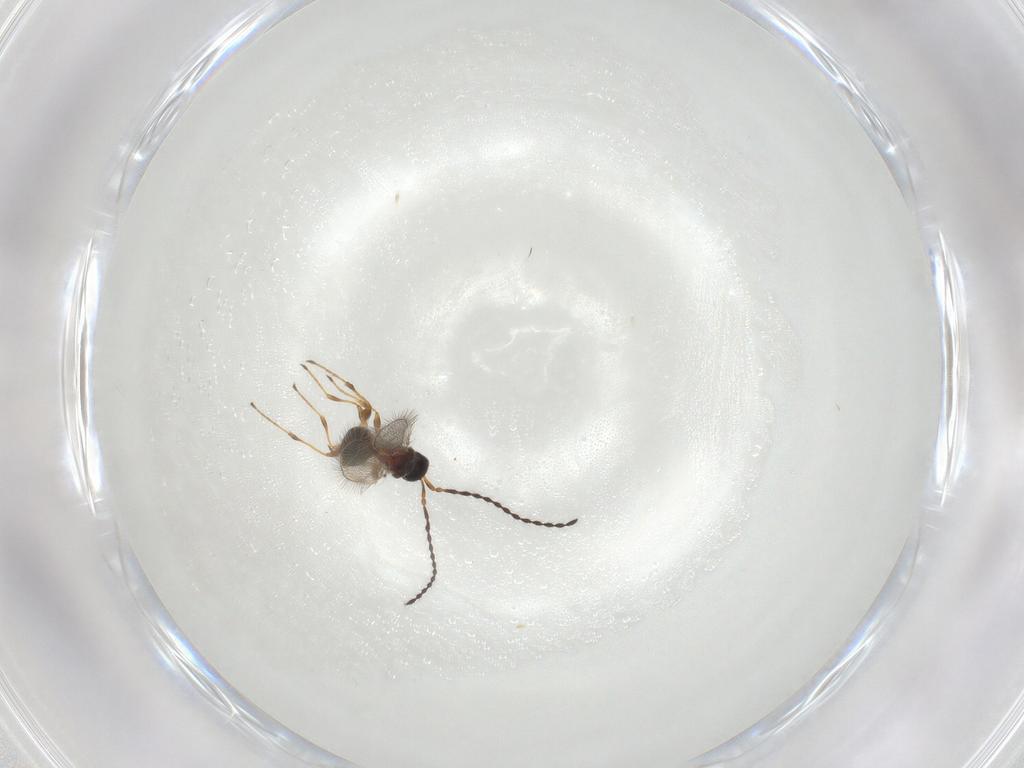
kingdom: Animalia
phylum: Arthropoda
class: Insecta
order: Hymenoptera
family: Diapriidae
